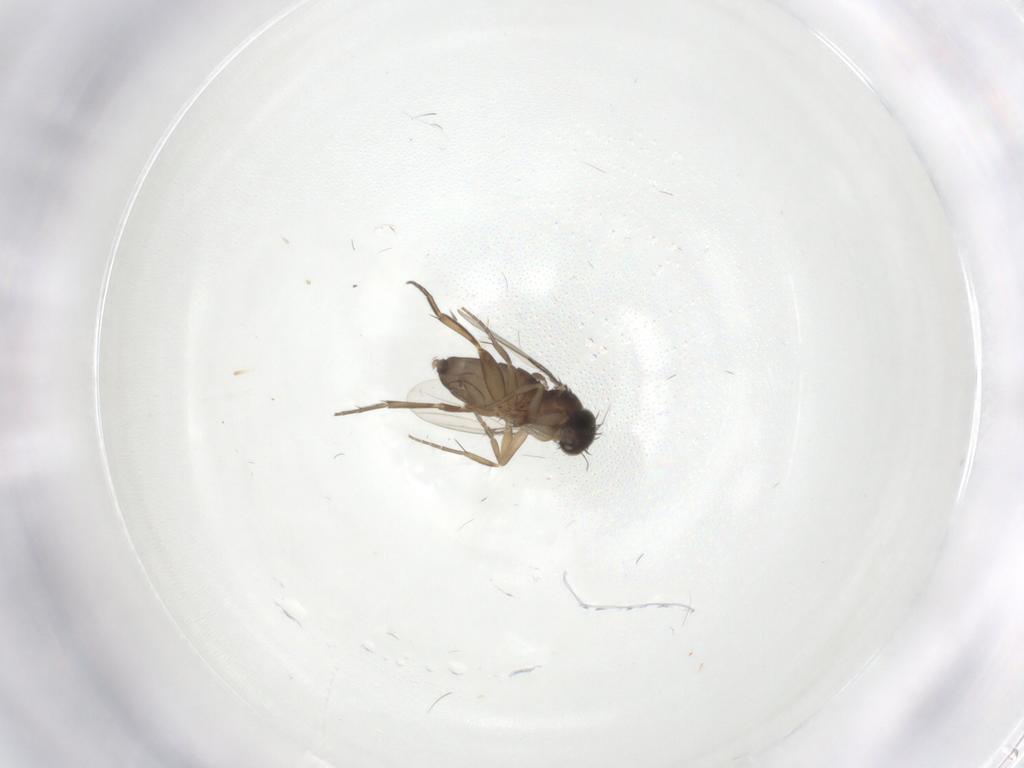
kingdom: Animalia
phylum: Arthropoda
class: Insecta
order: Diptera
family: Phoridae
